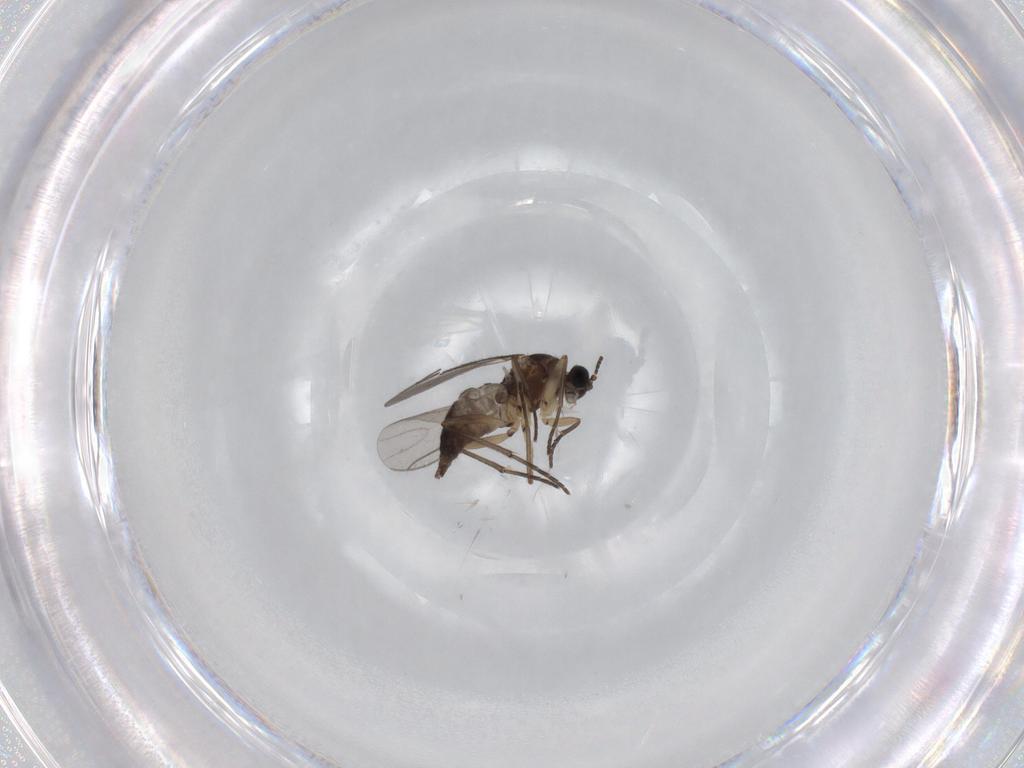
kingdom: Animalia
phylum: Arthropoda
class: Insecta
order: Diptera
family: Sciaridae
